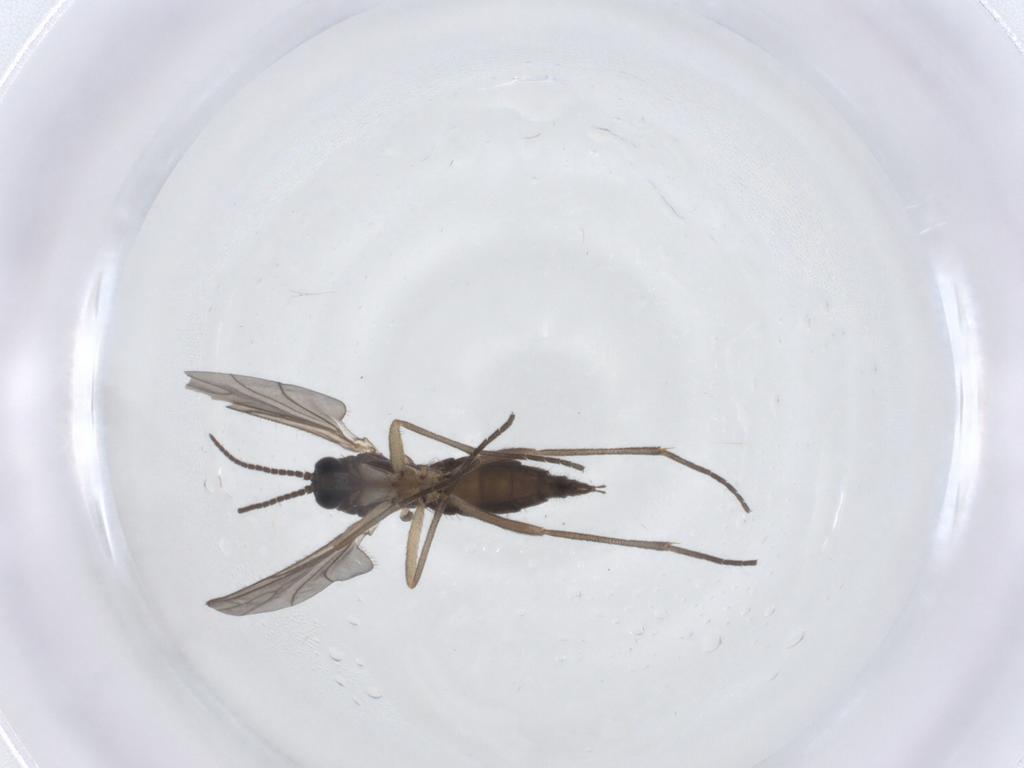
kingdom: Animalia
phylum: Arthropoda
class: Insecta
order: Diptera
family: Sciaridae
